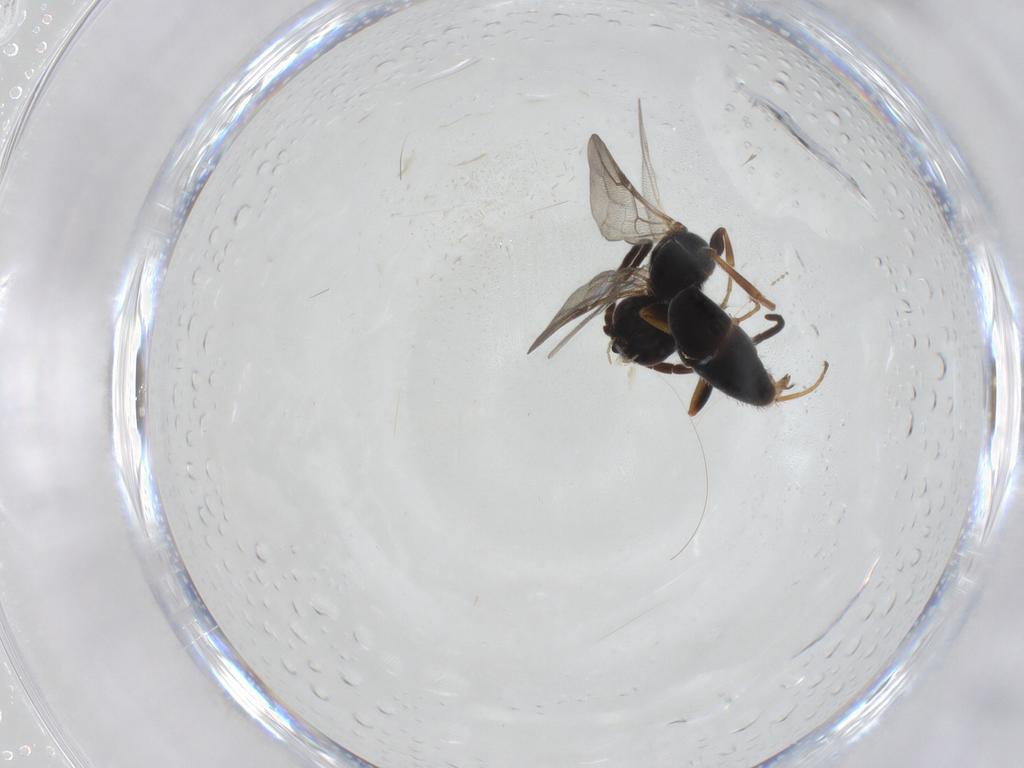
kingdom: Animalia
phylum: Arthropoda
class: Insecta
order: Hymenoptera
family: Bethylidae
